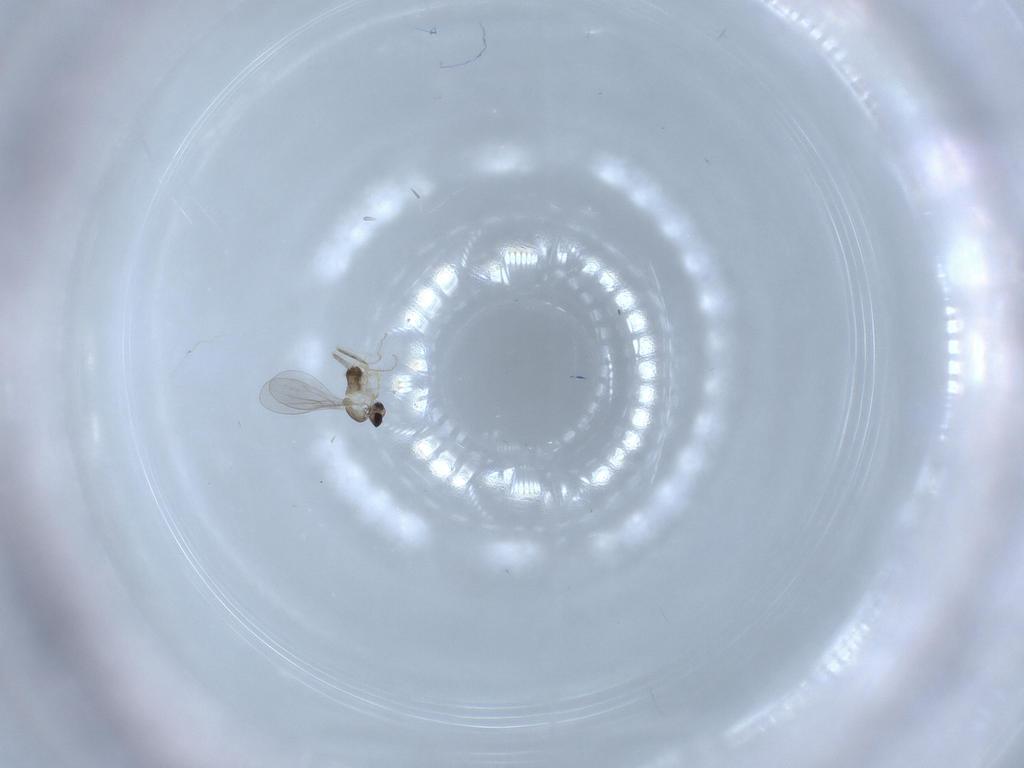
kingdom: Animalia
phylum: Arthropoda
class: Insecta
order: Diptera
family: Cecidomyiidae
